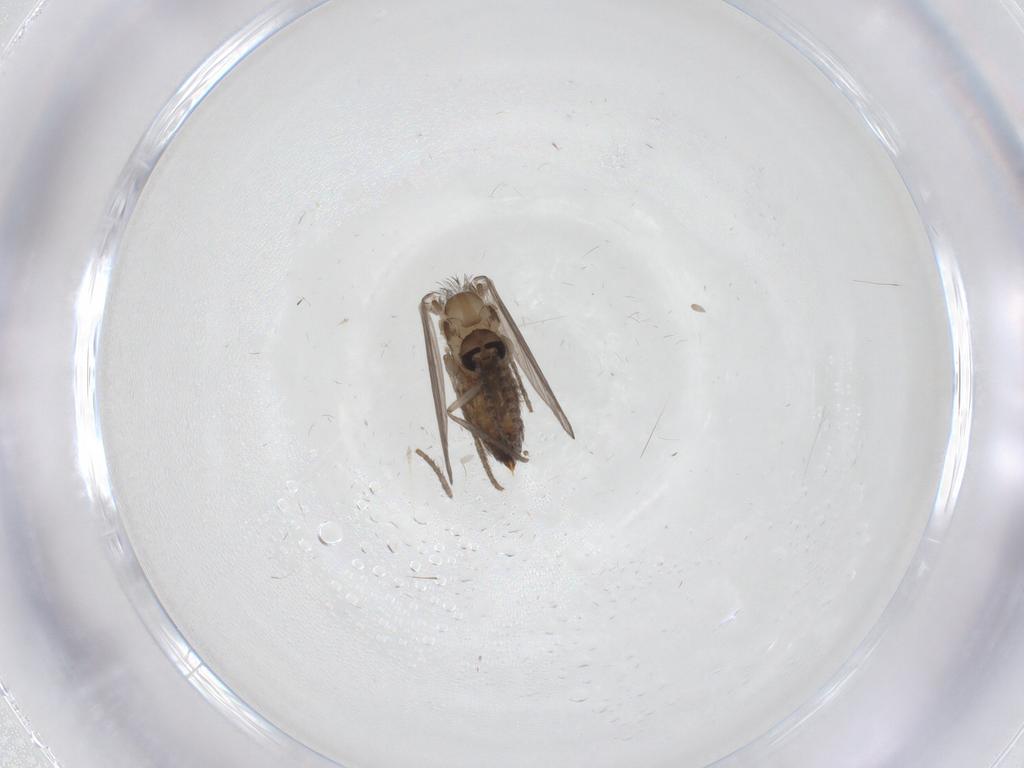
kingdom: Animalia
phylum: Arthropoda
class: Insecta
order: Diptera
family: Psychodidae
